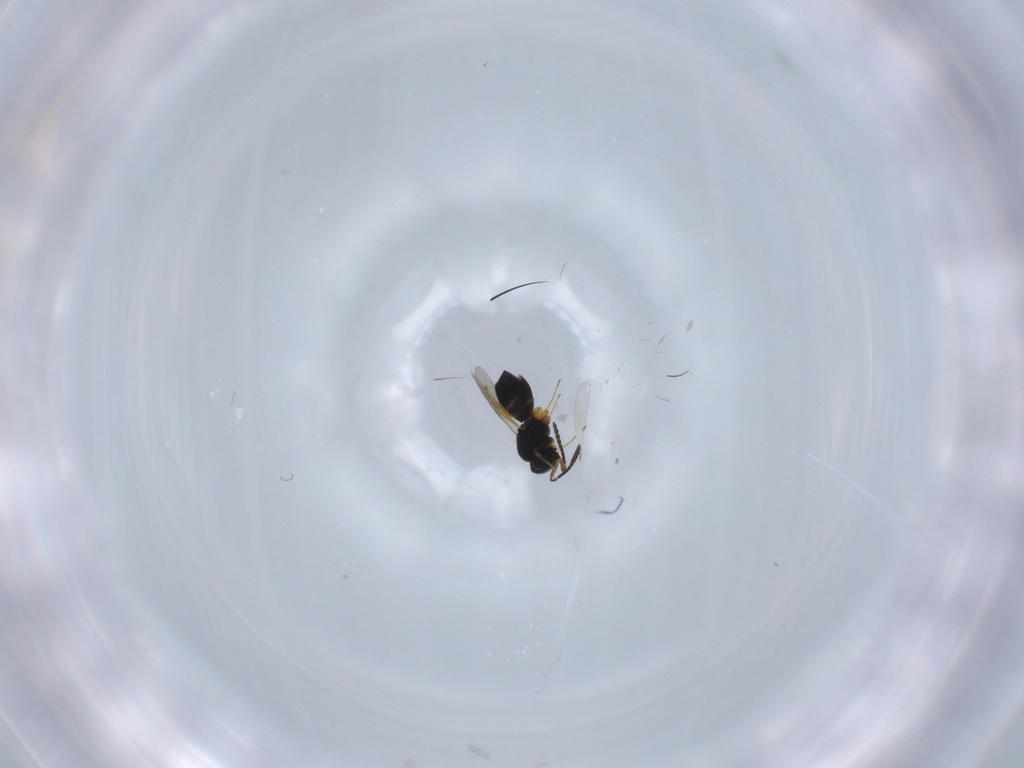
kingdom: Animalia
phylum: Arthropoda
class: Insecta
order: Hymenoptera
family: Scelionidae
